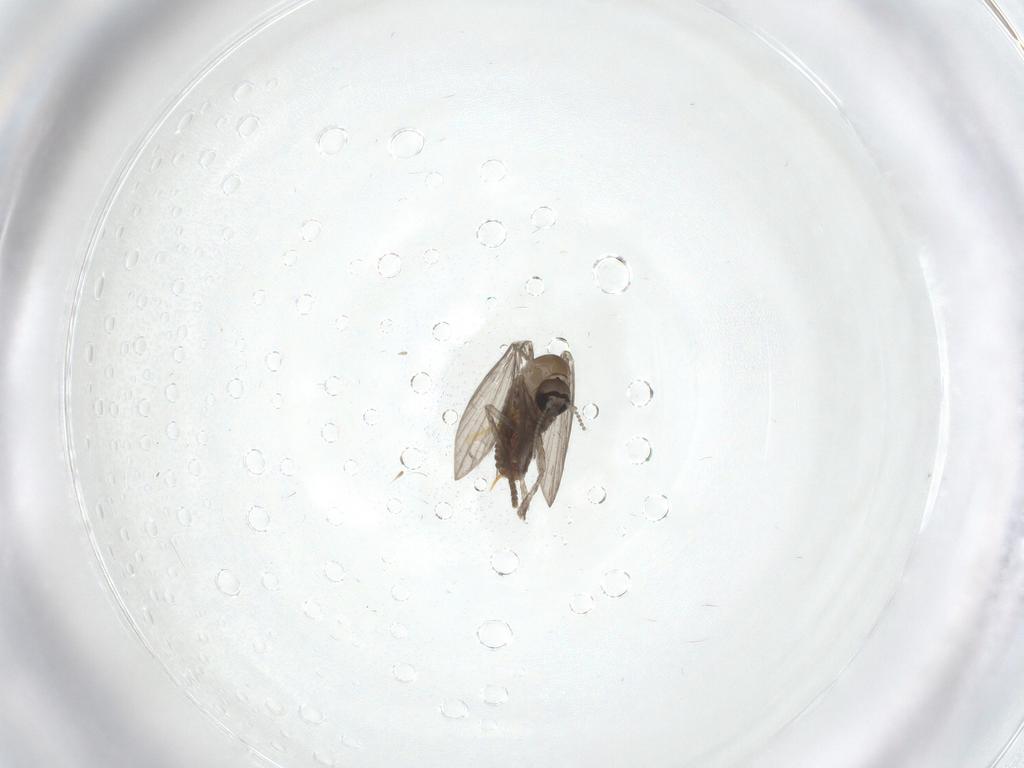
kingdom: Animalia
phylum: Arthropoda
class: Insecta
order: Diptera
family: Psychodidae
